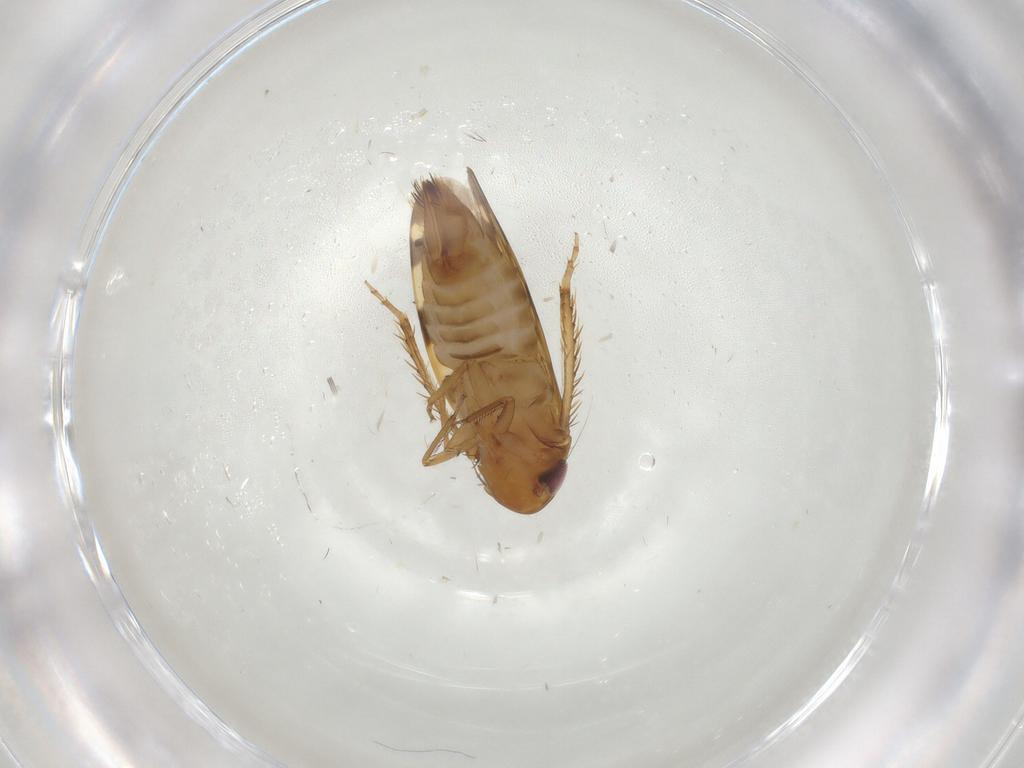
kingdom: Animalia
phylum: Arthropoda
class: Insecta
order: Hemiptera
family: Cicadellidae
